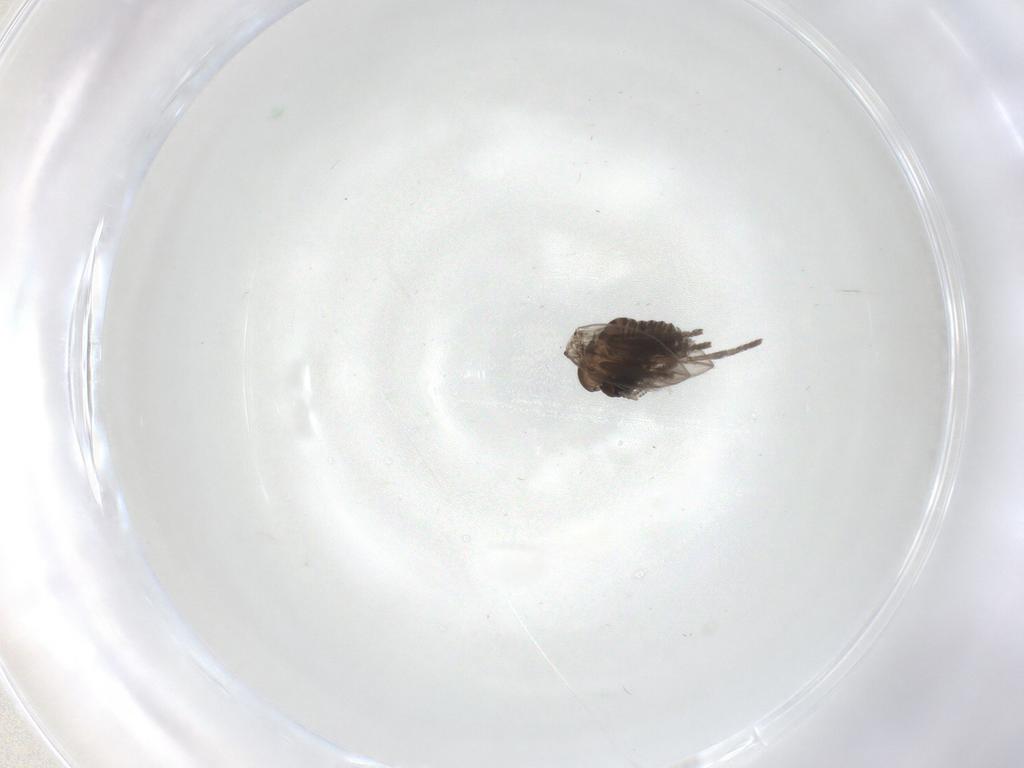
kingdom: Animalia
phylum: Arthropoda
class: Insecta
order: Diptera
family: Psychodidae
